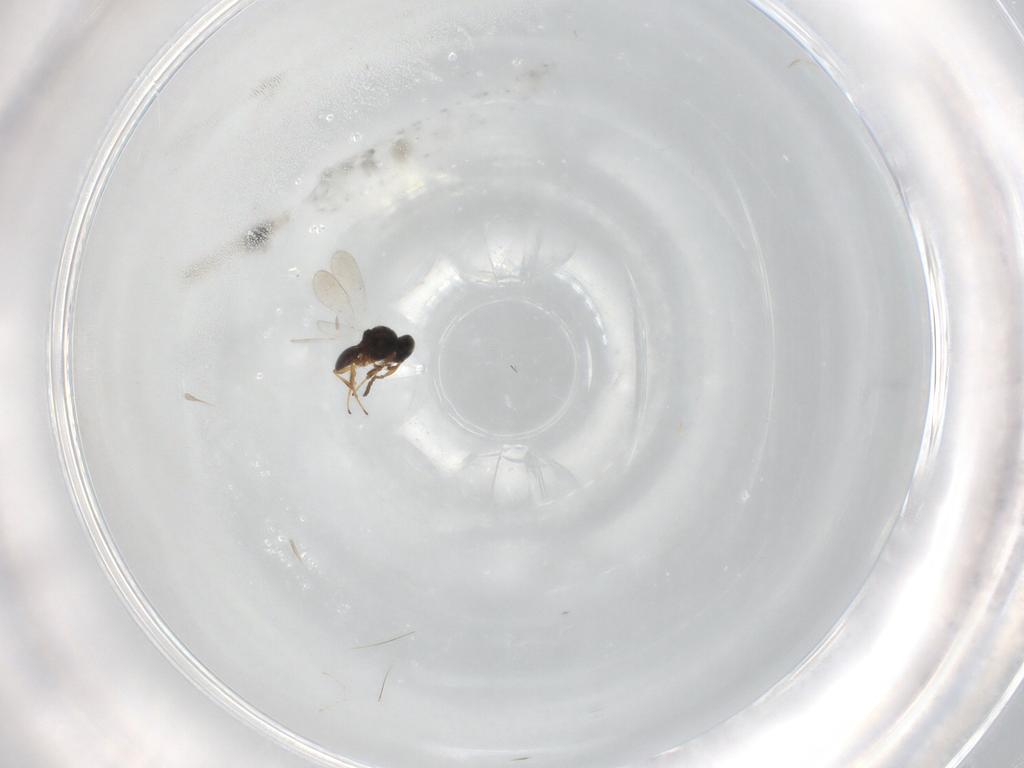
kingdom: Animalia
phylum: Arthropoda
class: Insecta
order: Hymenoptera
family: Platygastridae
